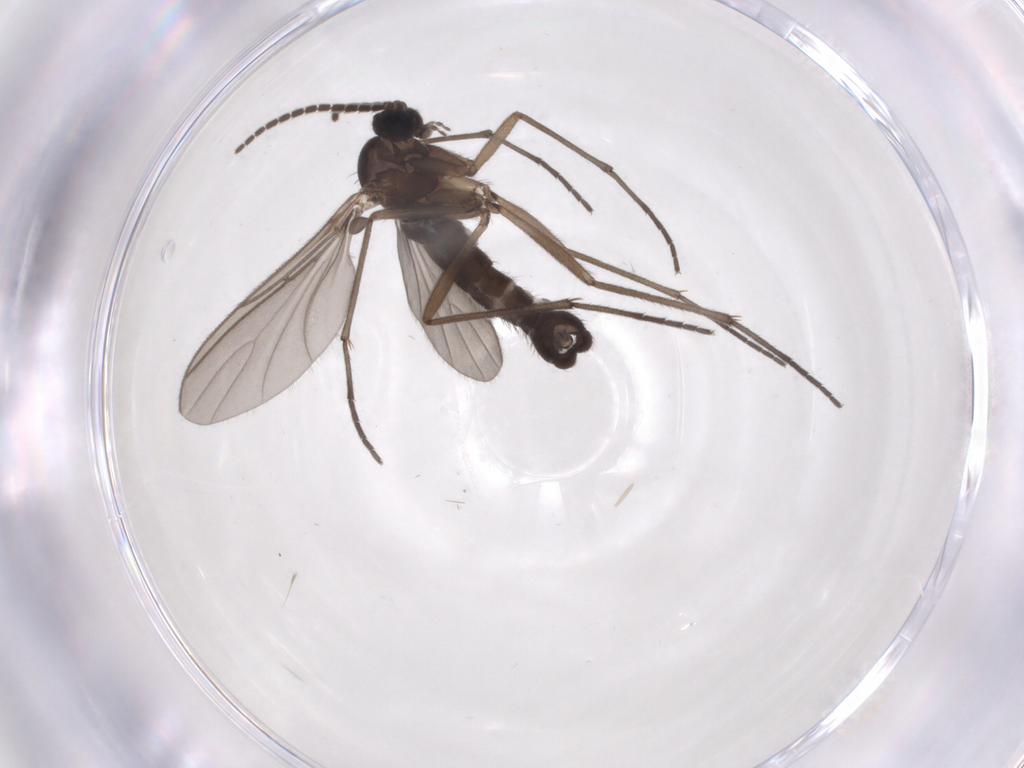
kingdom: Animalia
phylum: Arthropoda
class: Insecta
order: Diptera
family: Sciaridae
